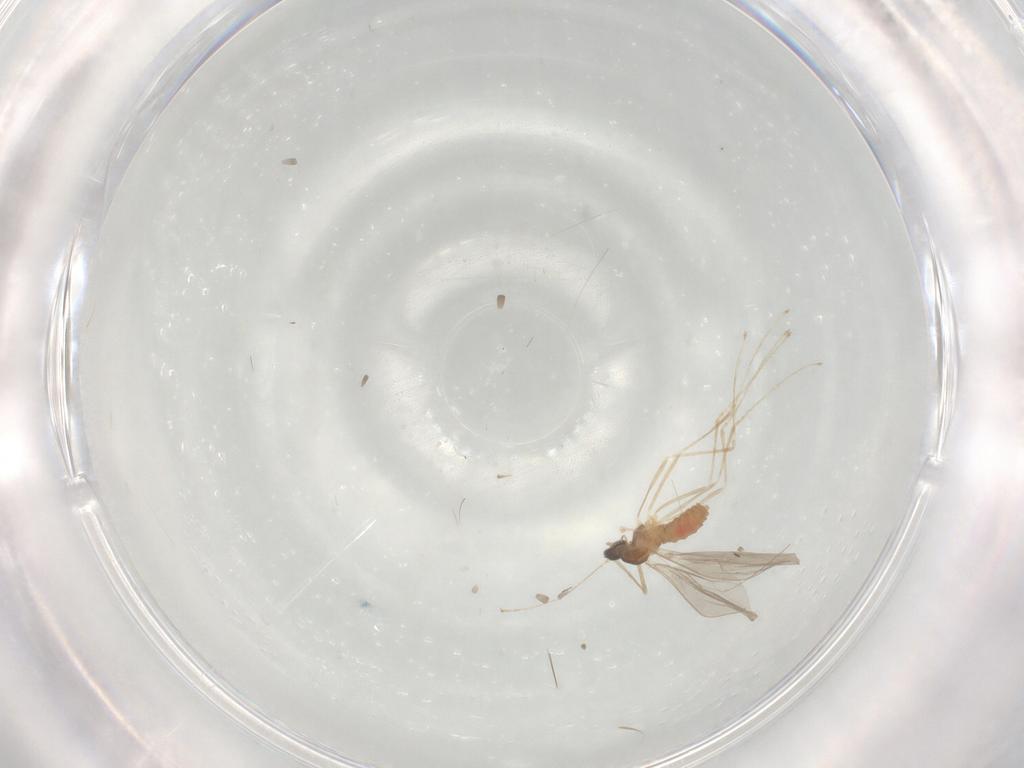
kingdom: Animalia
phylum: Arthropoda
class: Insecta
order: Diptera
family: Cecidomyiidae
